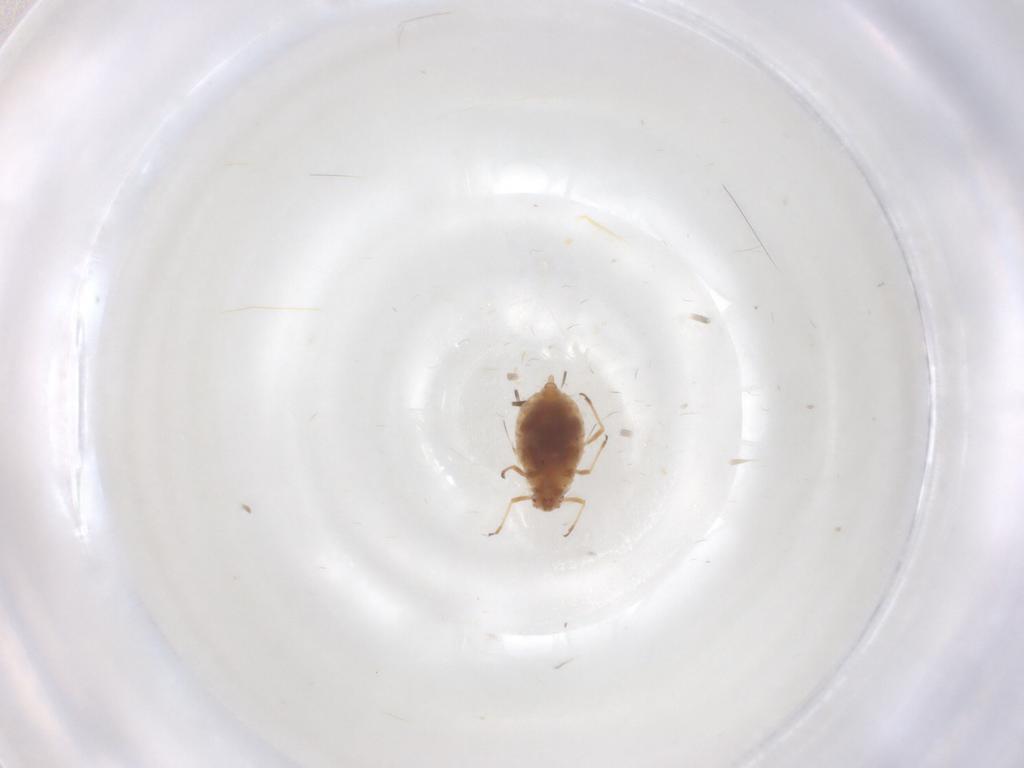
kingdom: Animalia
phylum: Arthropoda
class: Insecta
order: Hemiptera
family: Aphididae
